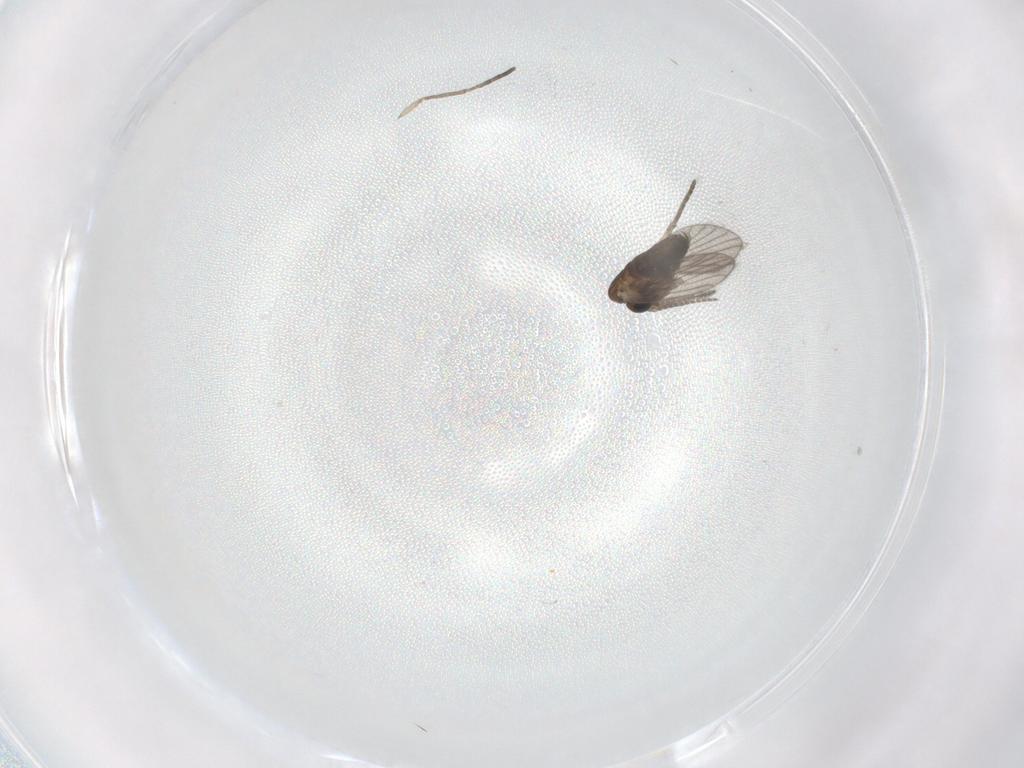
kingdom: Animalia
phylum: Arthropoda
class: Insecta
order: Diptera
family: Psychodidae
